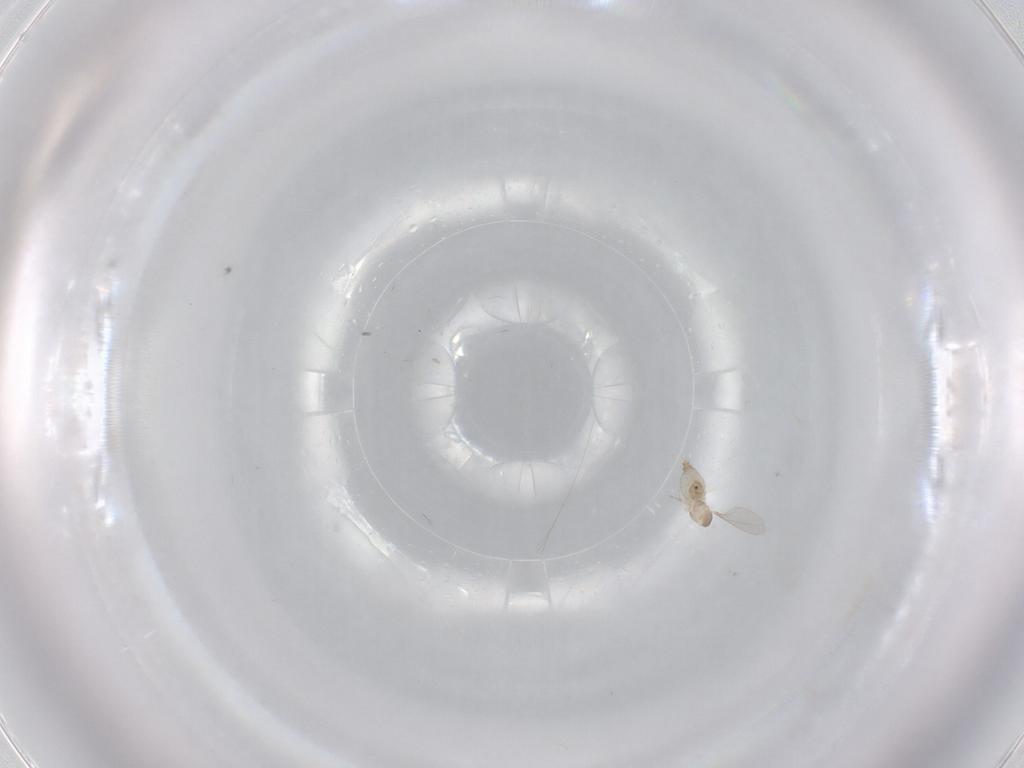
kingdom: Animalia
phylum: Arthropoda
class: Insecta
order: Diptera
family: Cecidomyiidae
